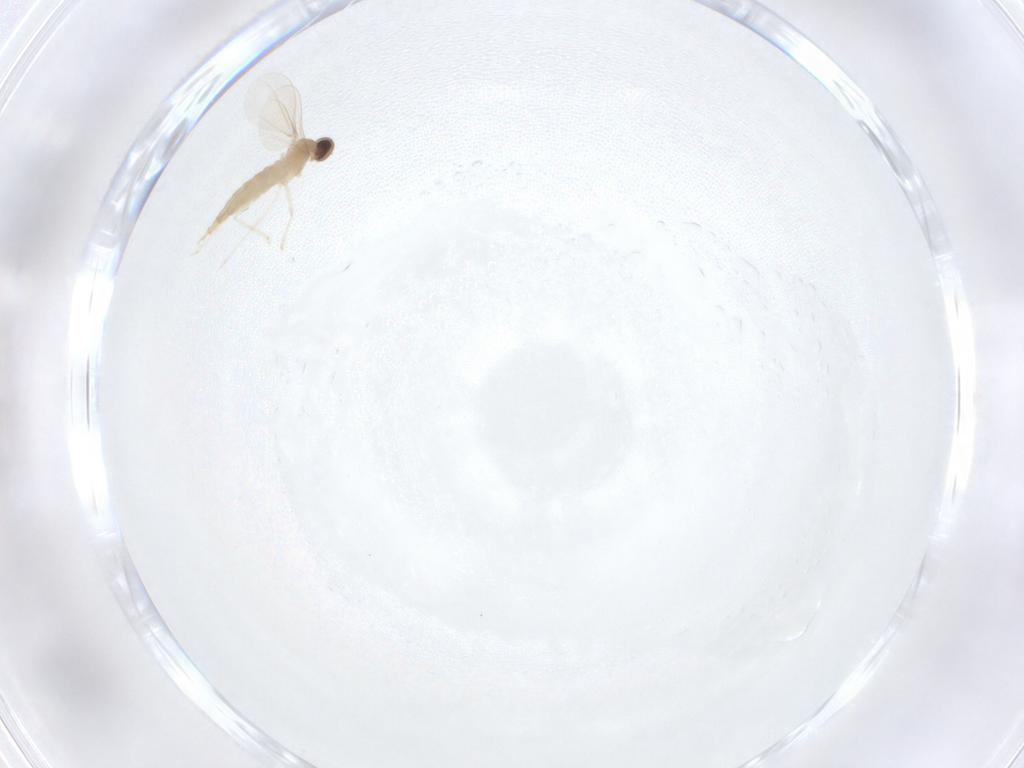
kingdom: Animalia
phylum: Arthropoda
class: Insecta
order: Diptera
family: Cecidomyiidae
